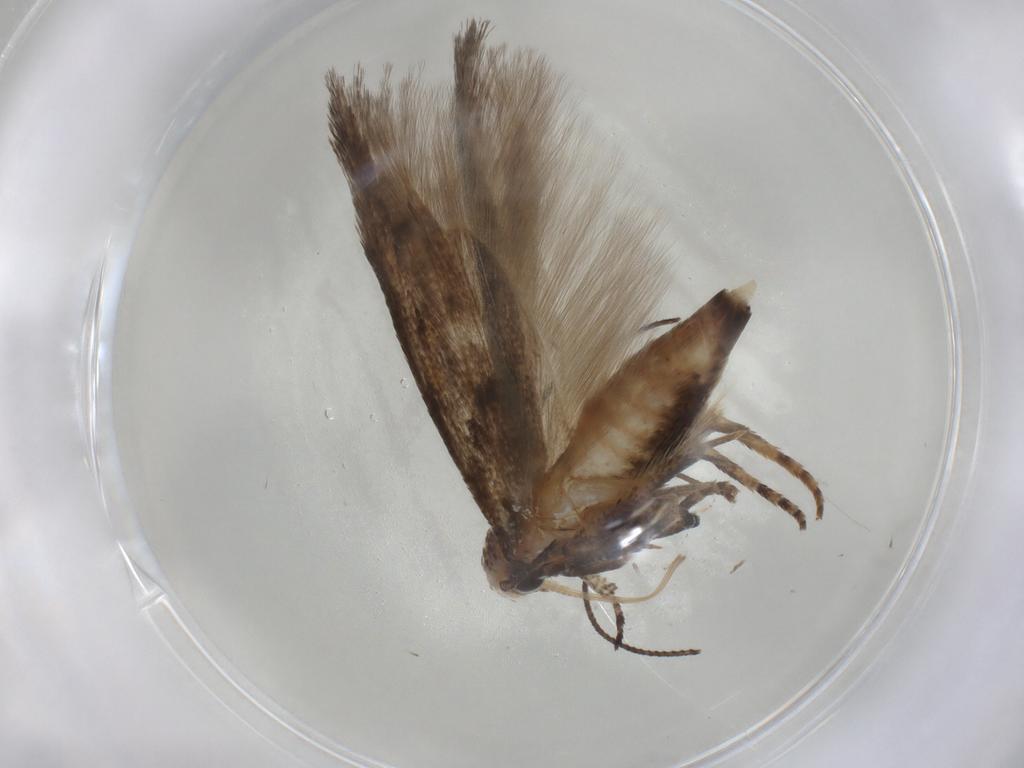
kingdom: Animalia
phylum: Arthropoda
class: Insecta
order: Lepidoptera
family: Gelechiidae
